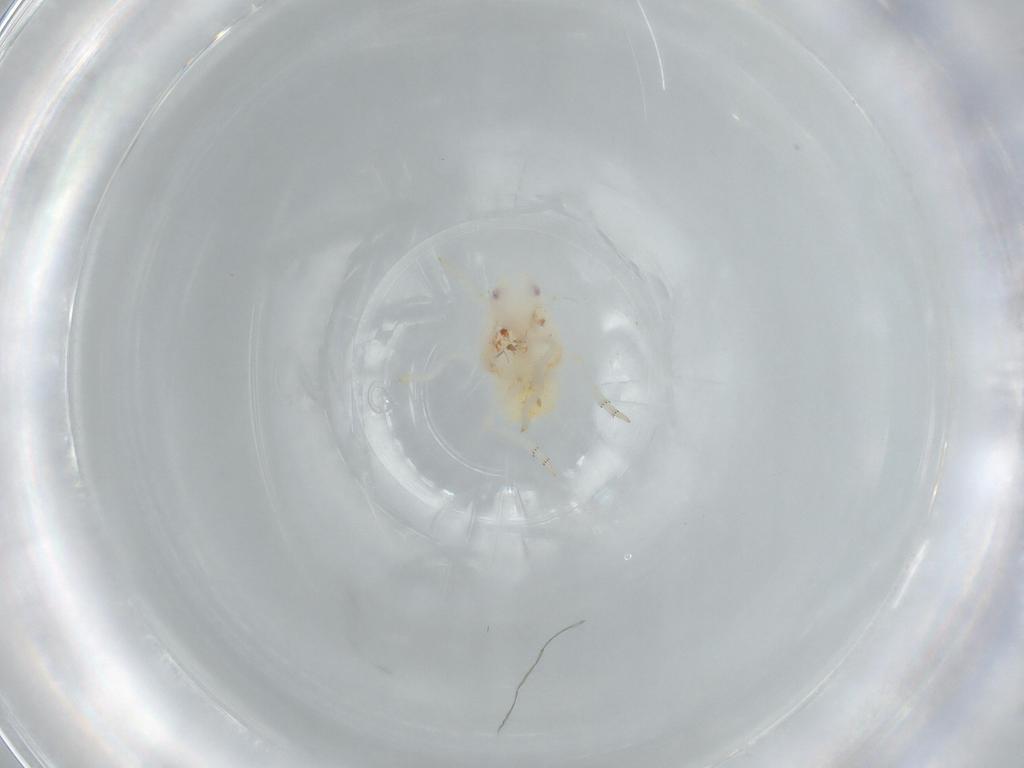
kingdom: Animalia
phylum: Arthropoda
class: Insecta
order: Hemiptera
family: Flatidae
